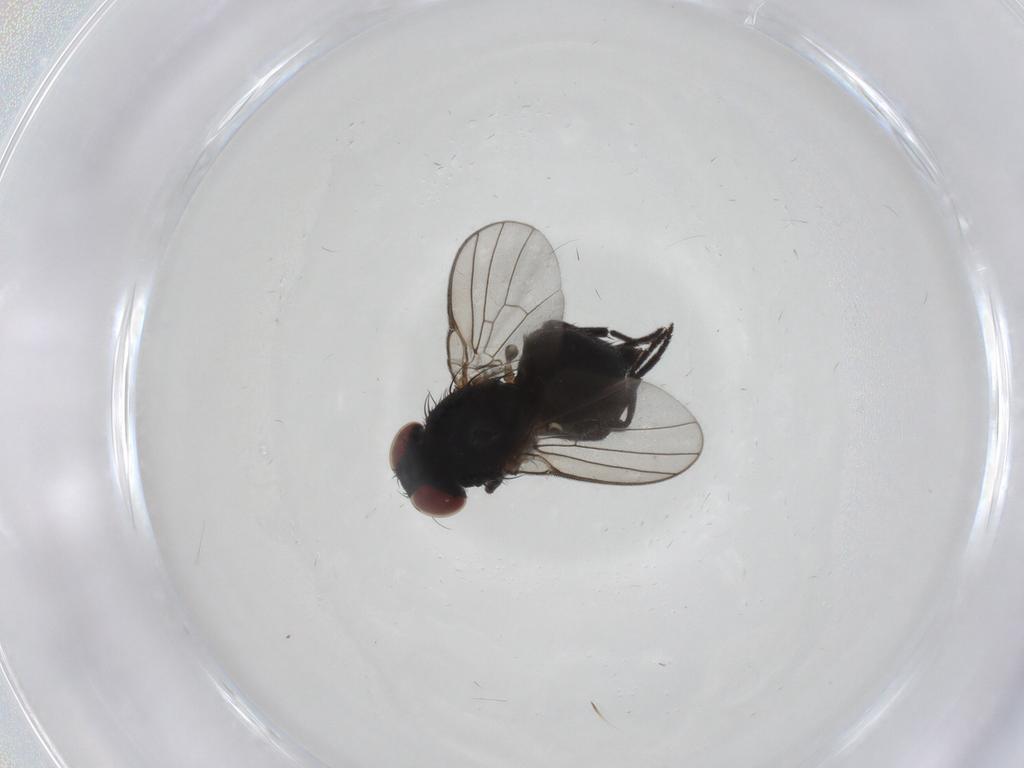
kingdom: Animalia
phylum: Arthropoda
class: Insecta
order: Diptera
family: Agromyzidae
